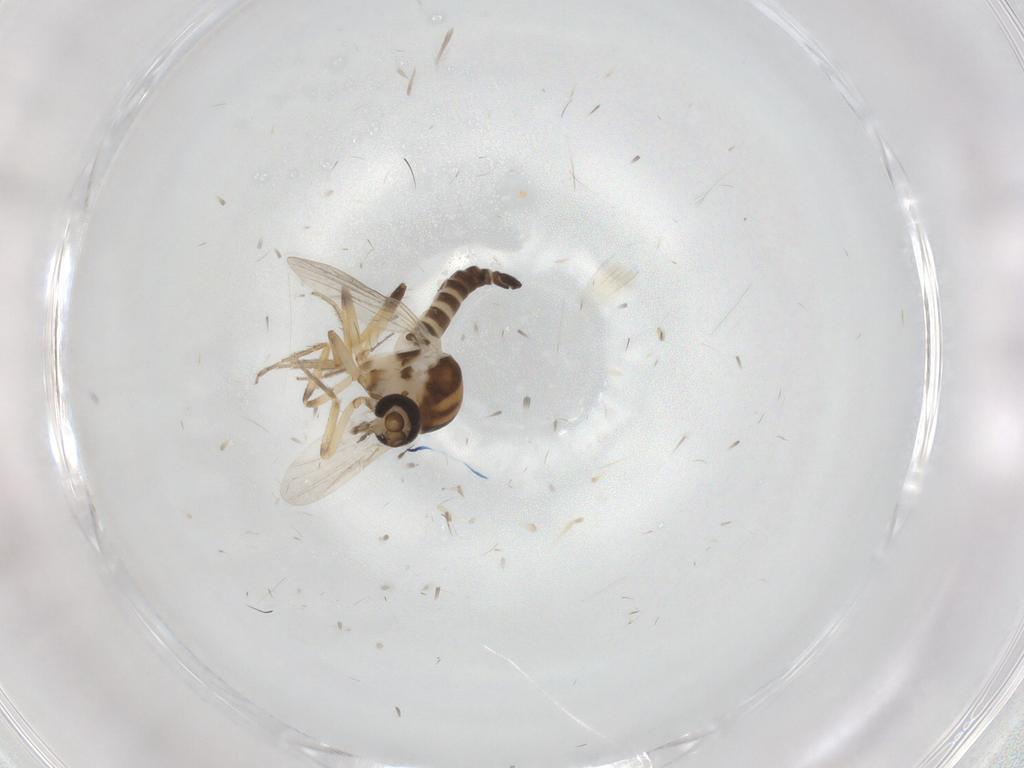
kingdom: Animalia
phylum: Arthropoda
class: Insecta
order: Diptera
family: Ceratopogonidae
